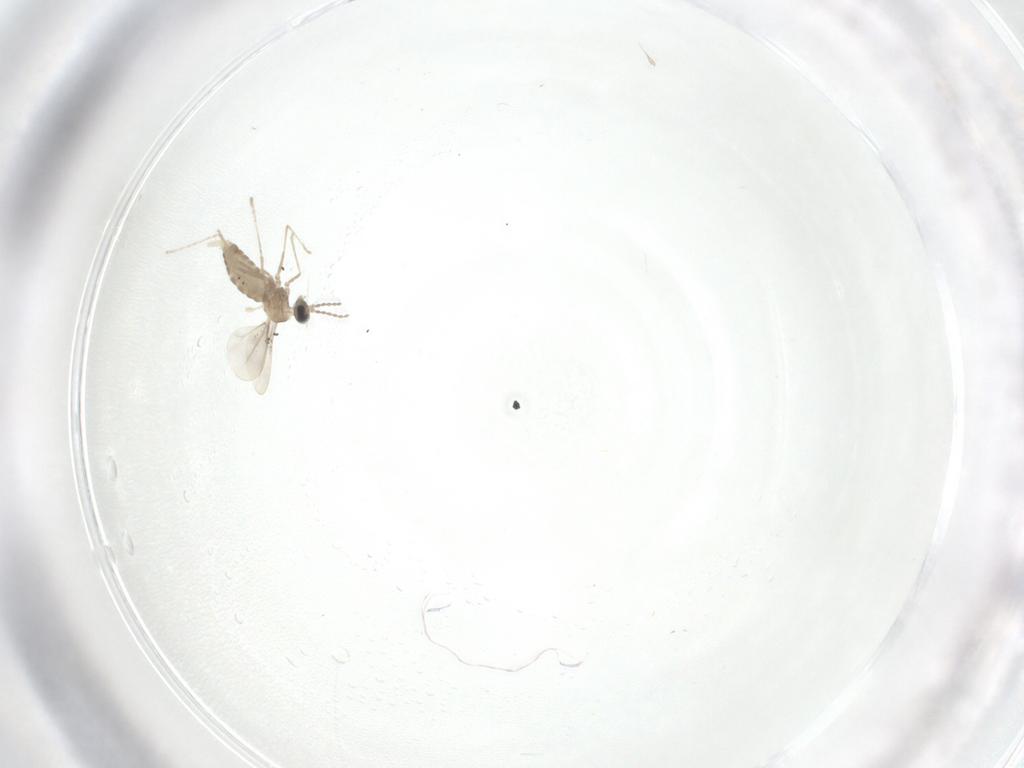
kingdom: Animalia
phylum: Arthropoda
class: Insecta
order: Diptera
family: Cecidomyiidae
